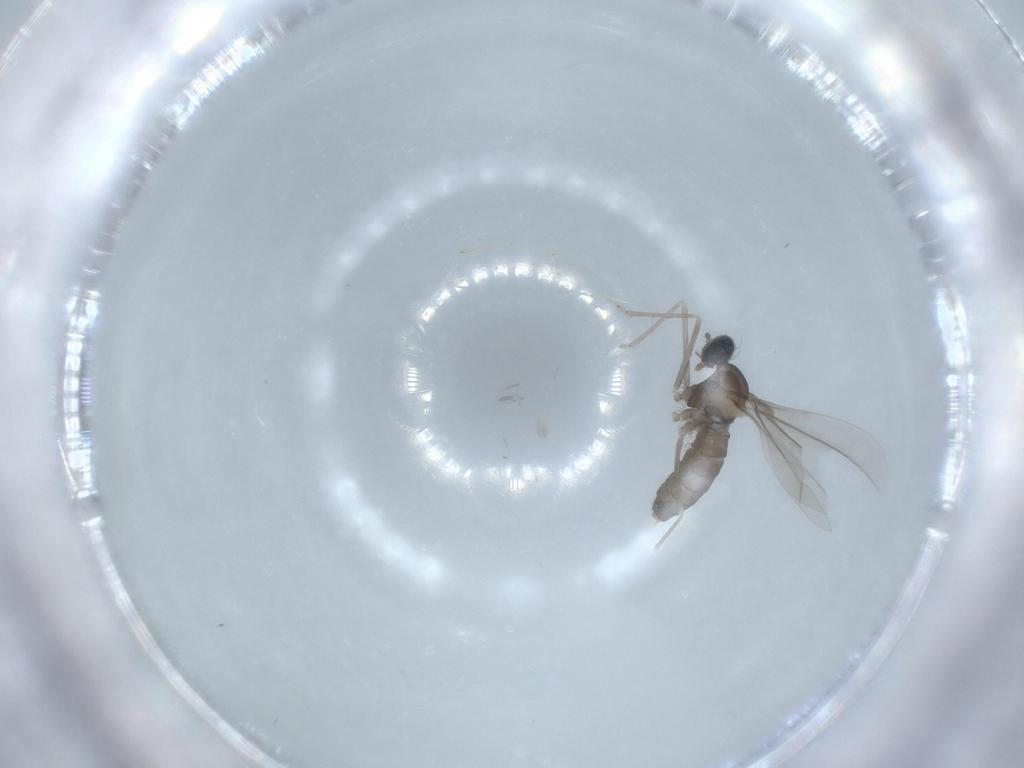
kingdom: Animalia
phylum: Arthropoda
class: Insecta
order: Diptera
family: Cecidomyiidae
